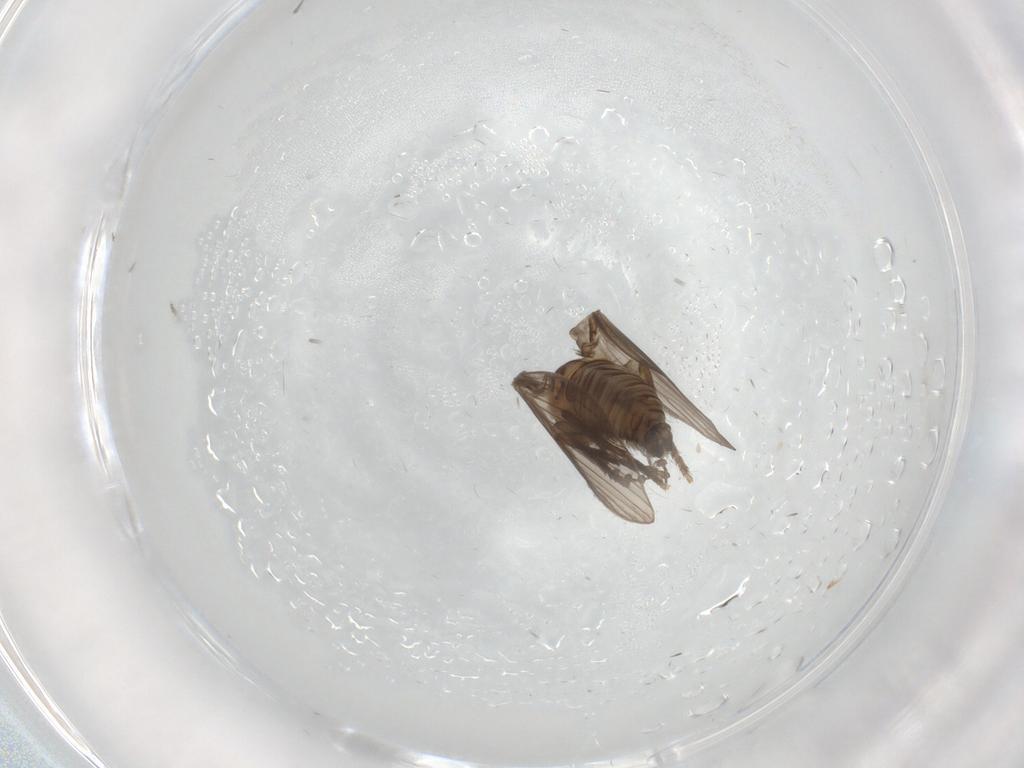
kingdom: Animalia
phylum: Arthropoda
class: Insecta
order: Diptera
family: Psychodidae
